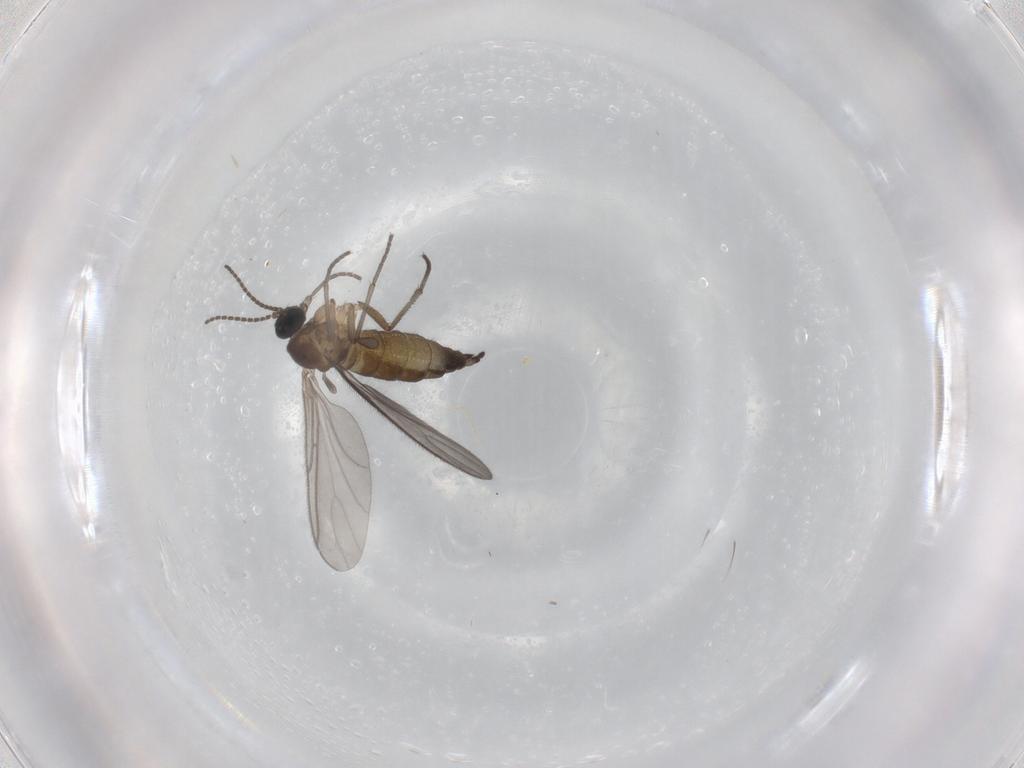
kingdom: Animalia
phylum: Arthropoda
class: Insecta
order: Diptera
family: Sciaridae
